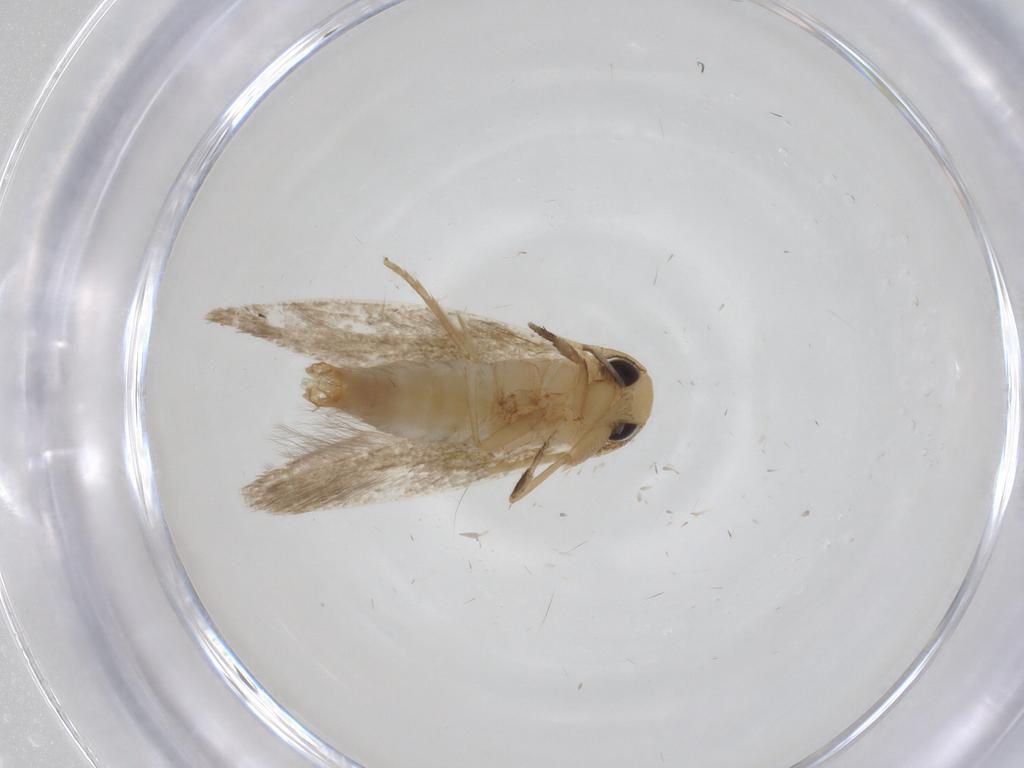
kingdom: Animalia
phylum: Arthropoda
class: Insecta
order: Lepidoptera
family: Tineidae
